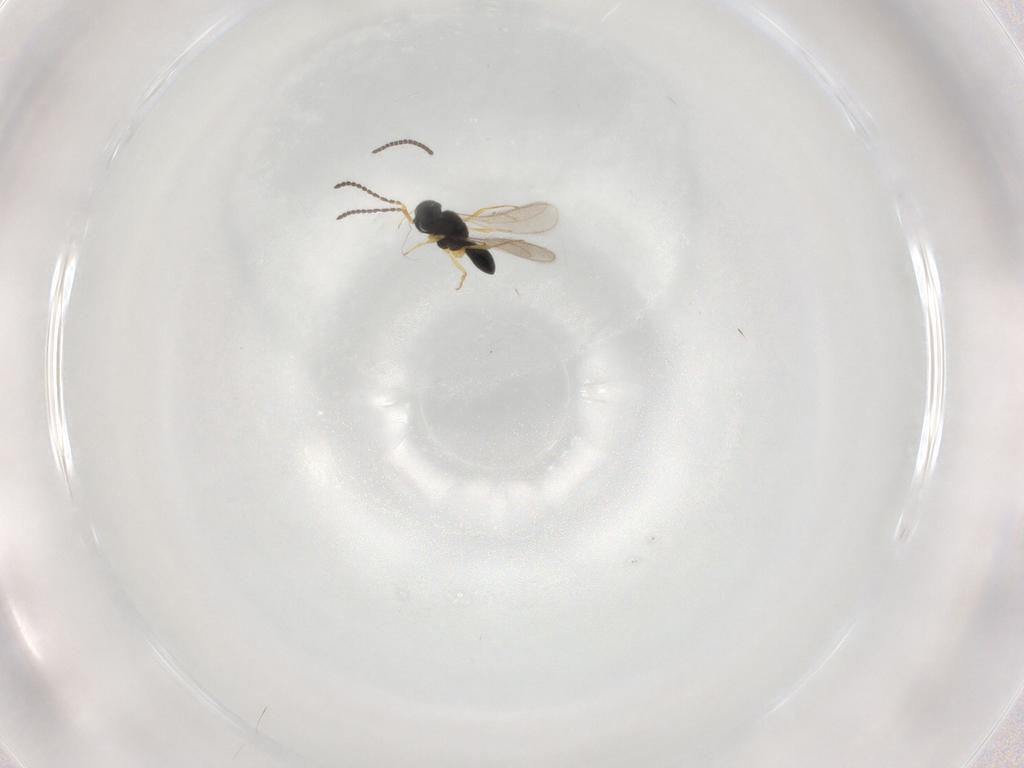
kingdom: Animalia
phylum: Arthropoda
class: Insecta
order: Hymenoptera
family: Scelionidae
